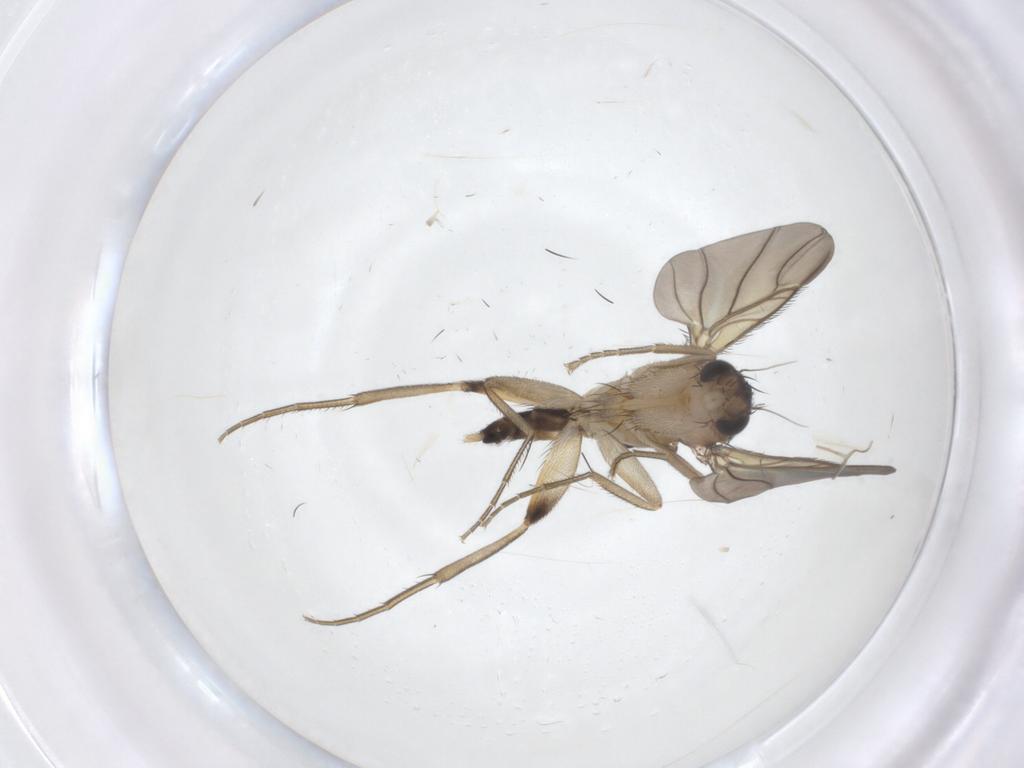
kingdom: Animalia
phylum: Arthropoda
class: Insecta
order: Diptera
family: Phoridae
